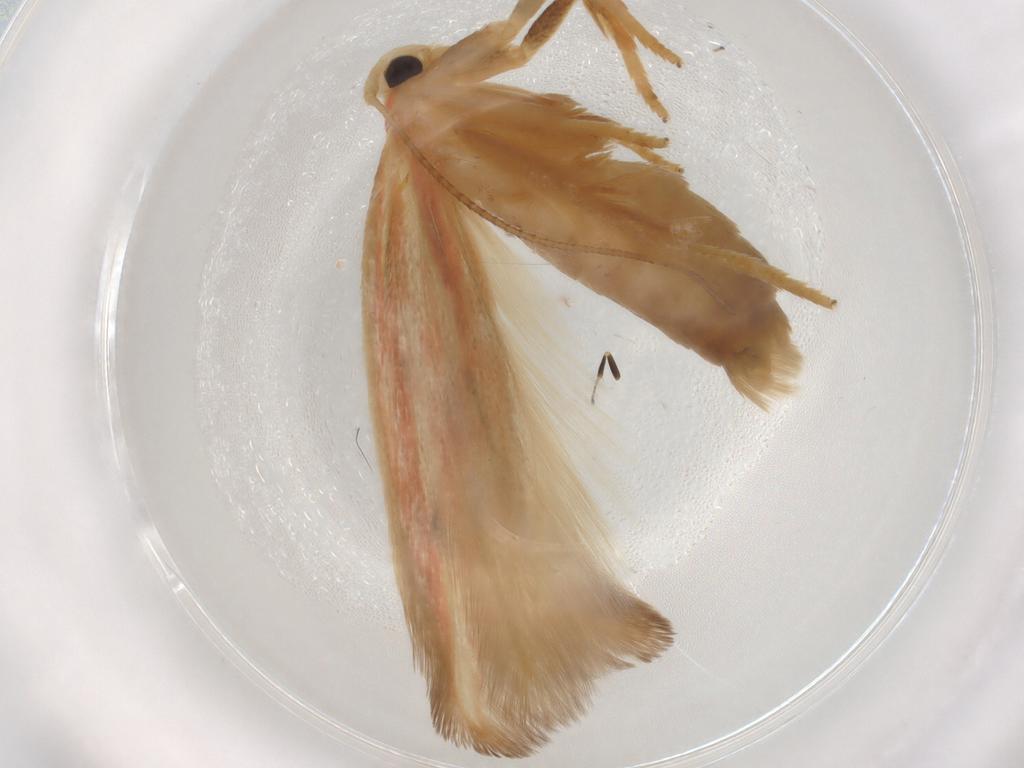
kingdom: Animalia
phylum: Arthropoda
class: Insecta
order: Lepidoptera
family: Geometridae
